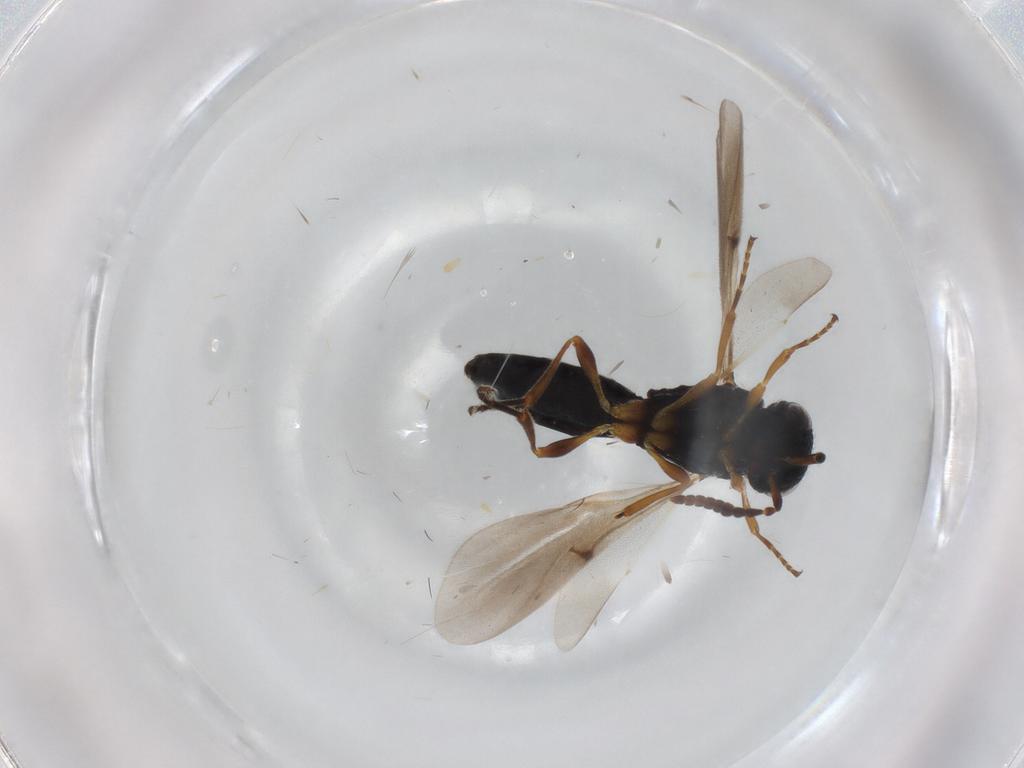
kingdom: Animalia
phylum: Arthropoda
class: Insecta
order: Hymenoptera
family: Scelionidae
